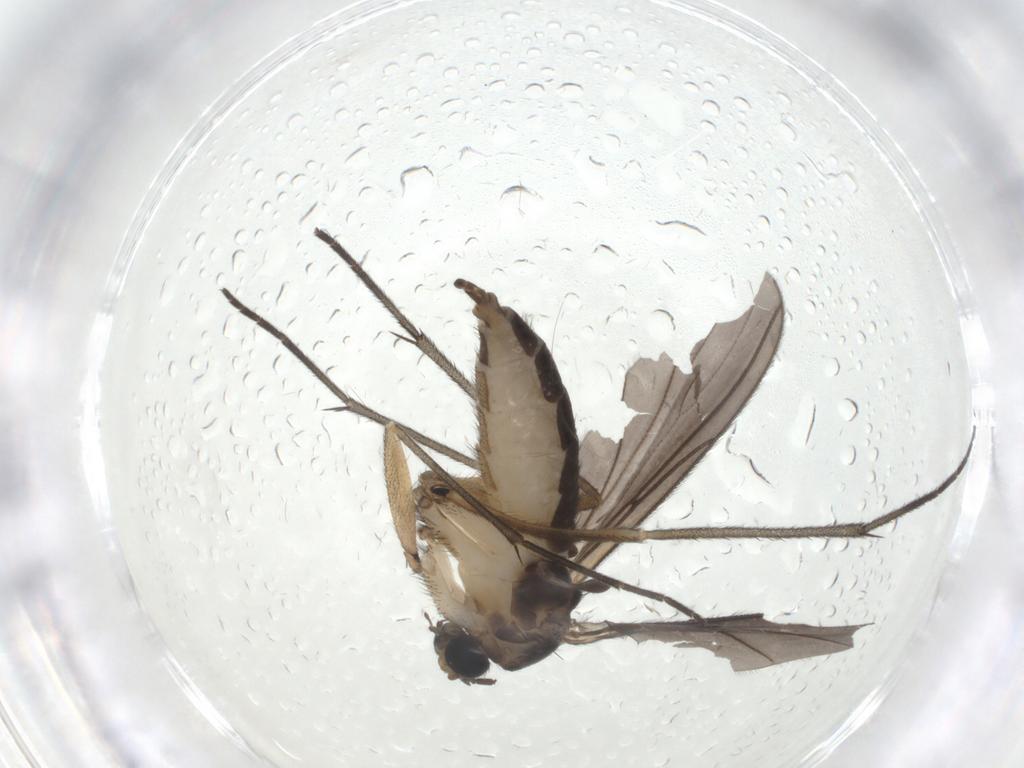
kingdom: Animalia
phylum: Arthropoda
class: Insecta
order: Diptera
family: Sciaridae
